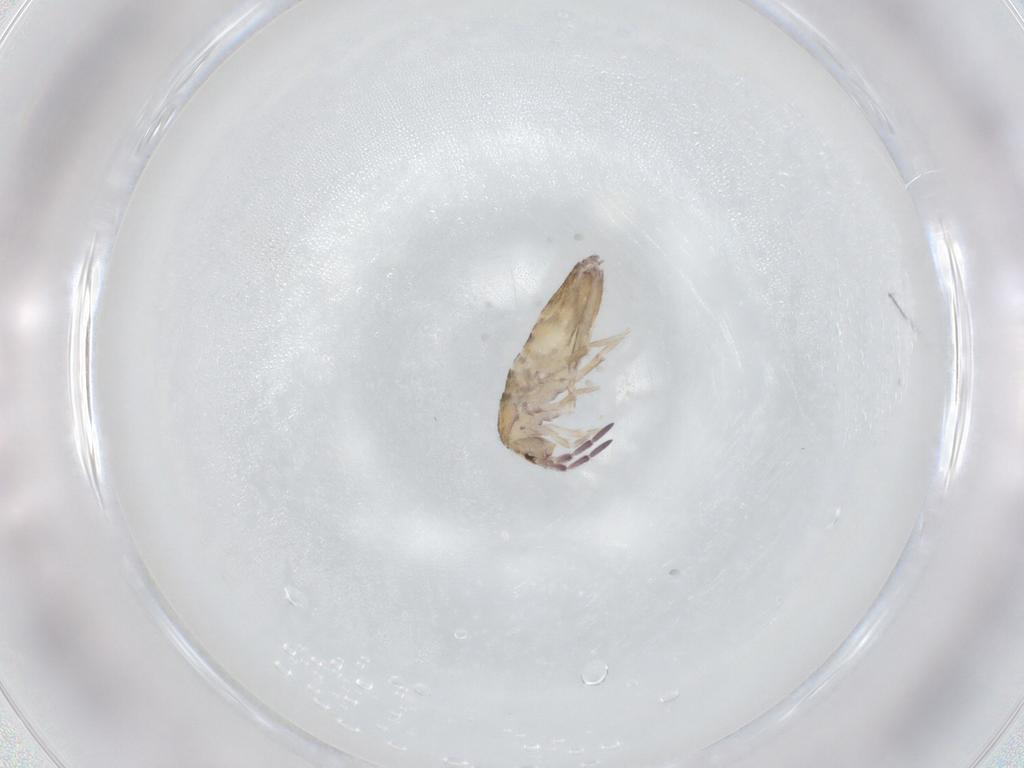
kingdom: Animalia
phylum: Arthropoda
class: Collembola
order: Entomobryomorpha
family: Entomobryidae
